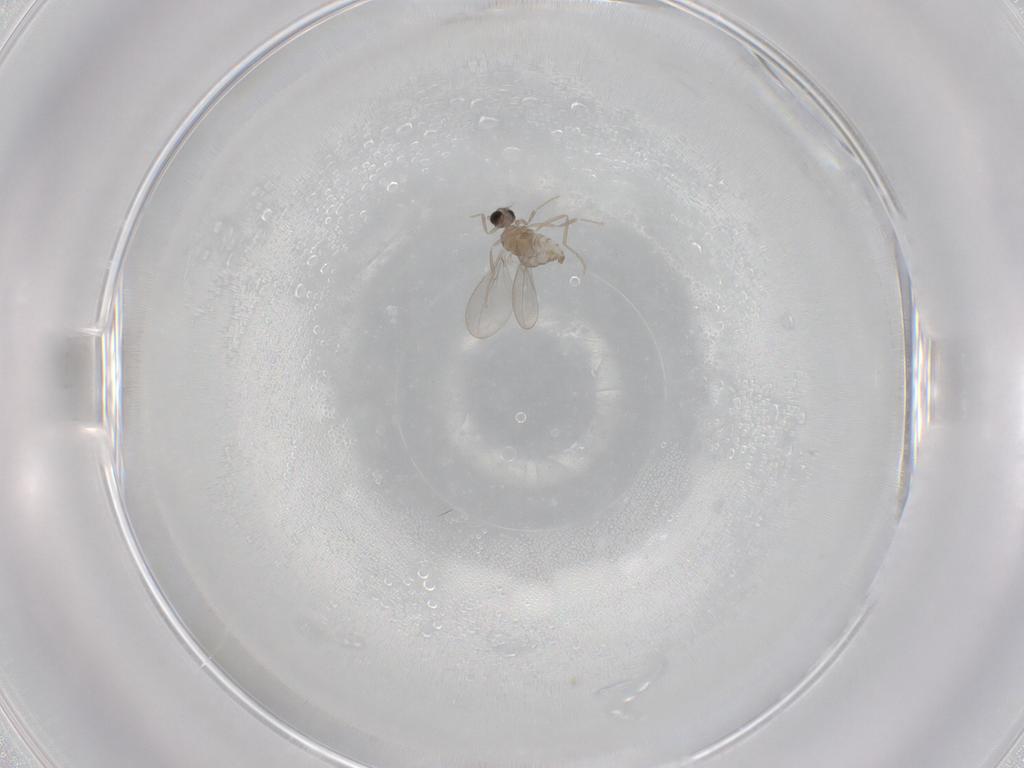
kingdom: Animalia
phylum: Arthropoda
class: Insecta
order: Diptera
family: Cecidomyiidae
